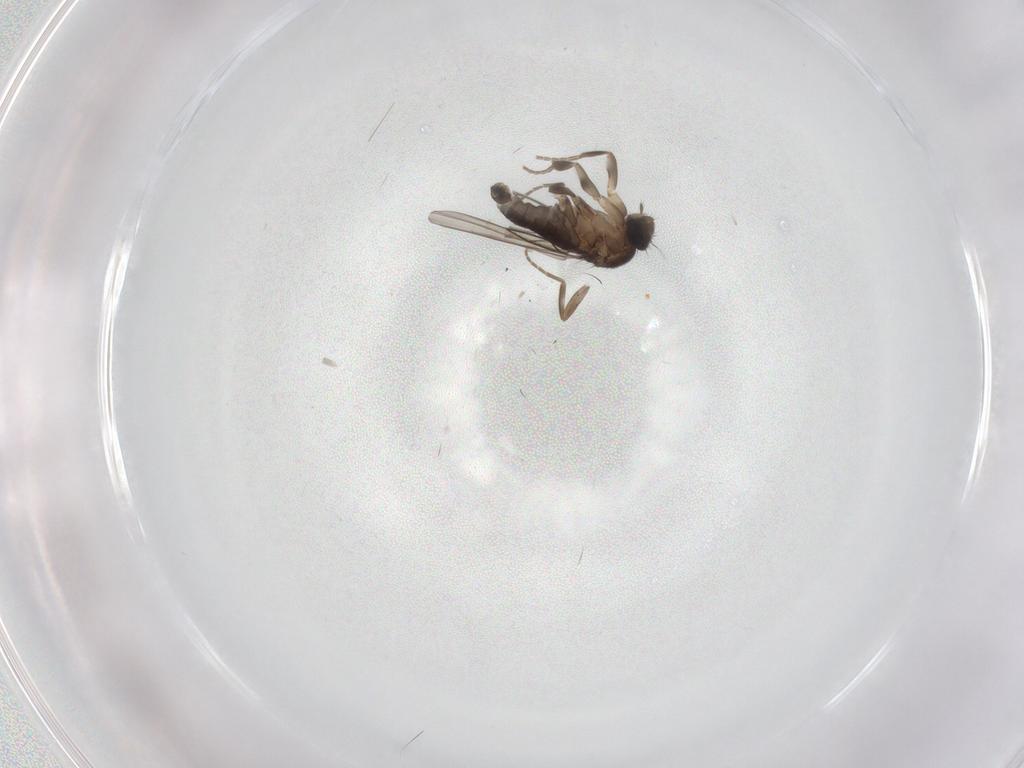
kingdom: Animalia
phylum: Arthropoda
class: Insecta
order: Diptera
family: Phoridae
